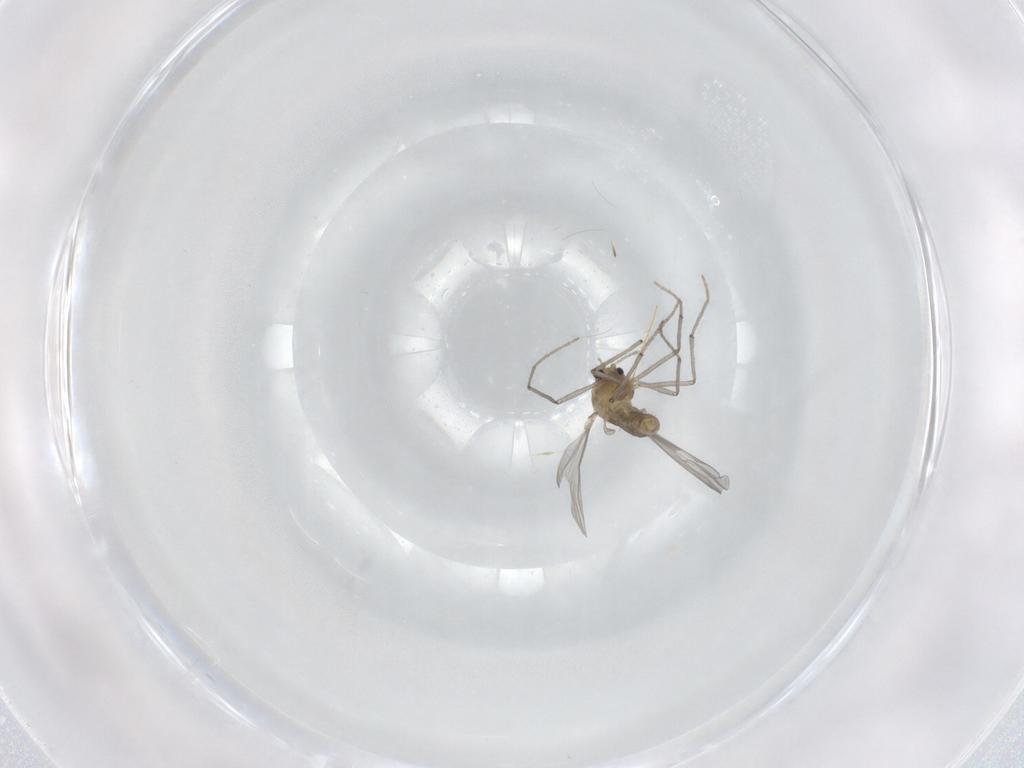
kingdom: Animalia
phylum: Arthropoda
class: Insecta
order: Diptera
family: Chironomidae
